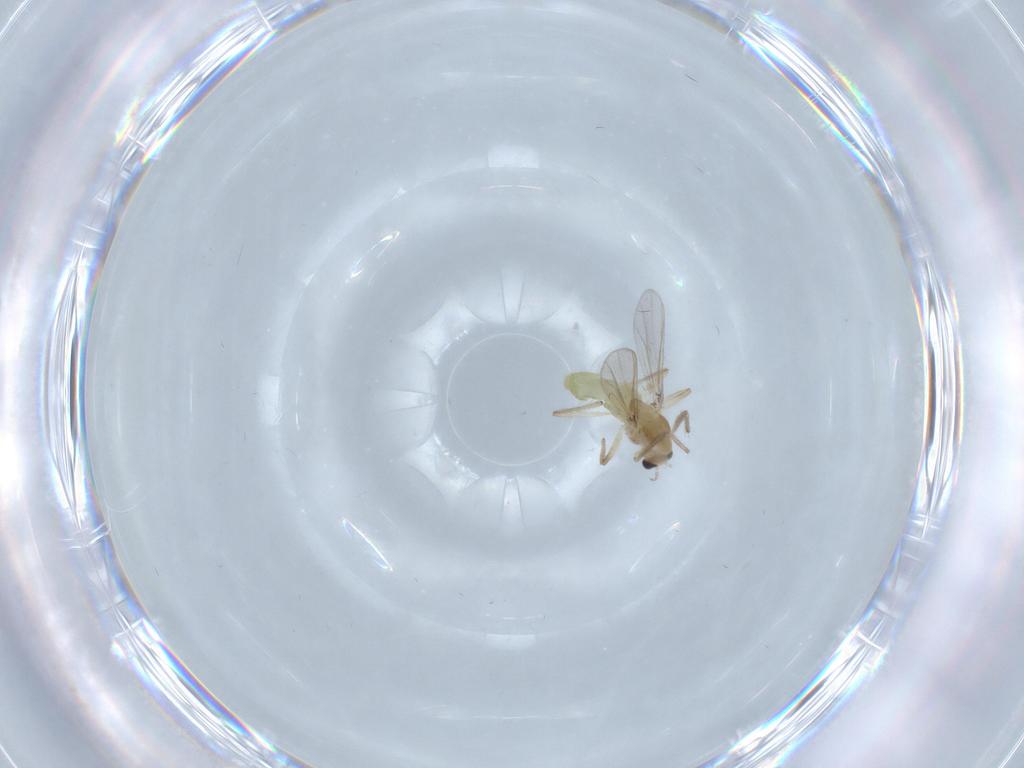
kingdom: Animalia
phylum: Arthropoda
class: Insecta
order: Diptera
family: Chironomidae
